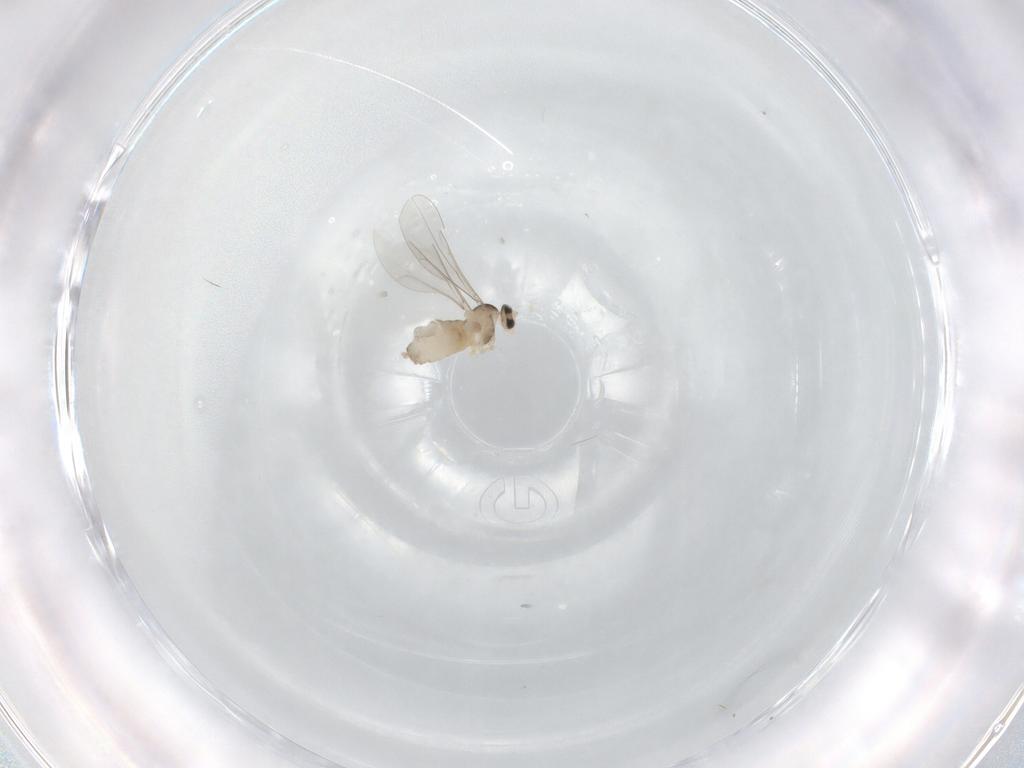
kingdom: Animalia
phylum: Arthropoda
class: Insecta
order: Diptera
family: Cecidomyiidae
